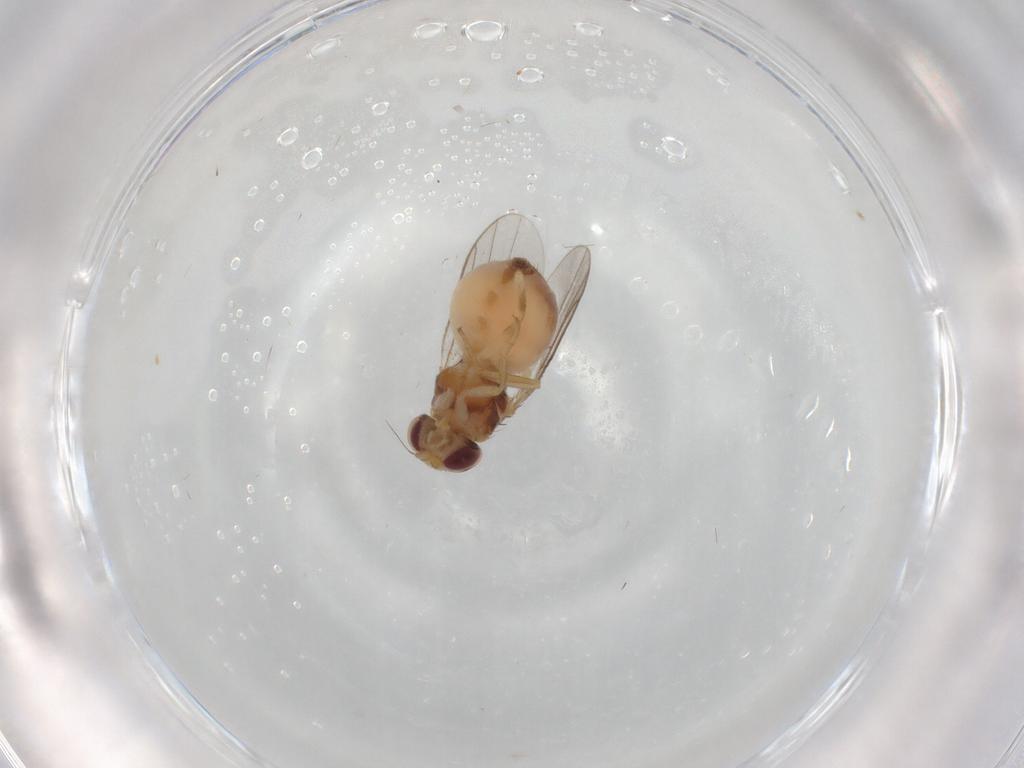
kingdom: Animalia
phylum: Arthropoda
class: Insecta
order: Diptera
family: Chloropidae
